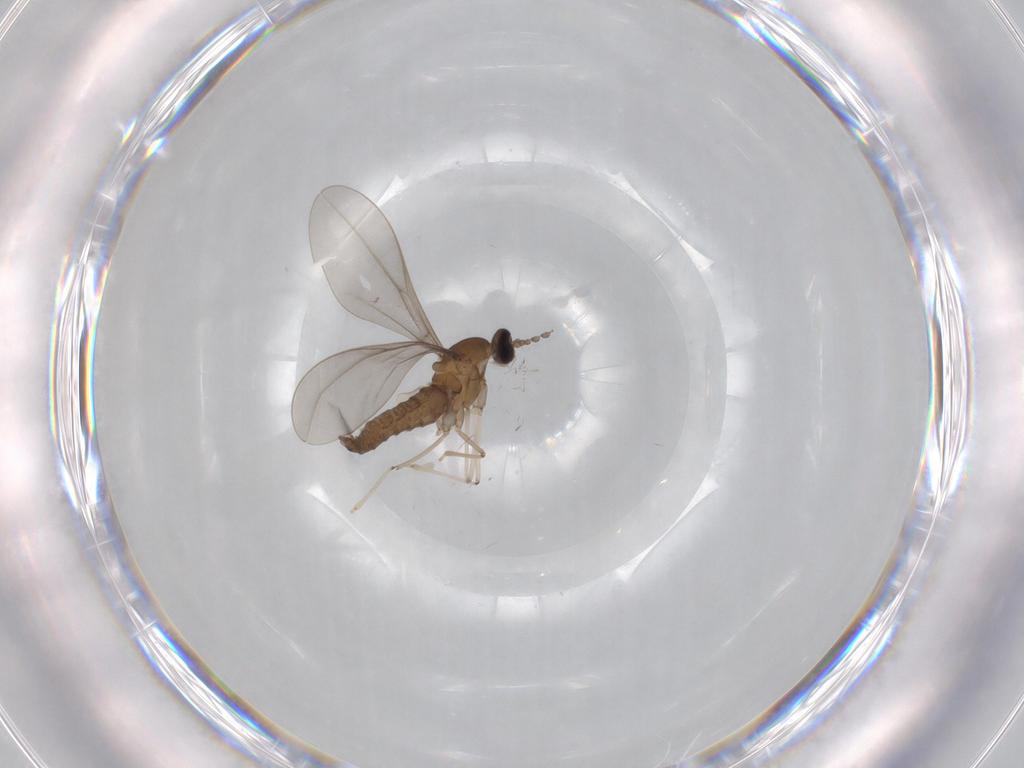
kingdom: Animalia
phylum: Arthropoda
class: Insecta
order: Diptera
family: Cecidomyiidae
